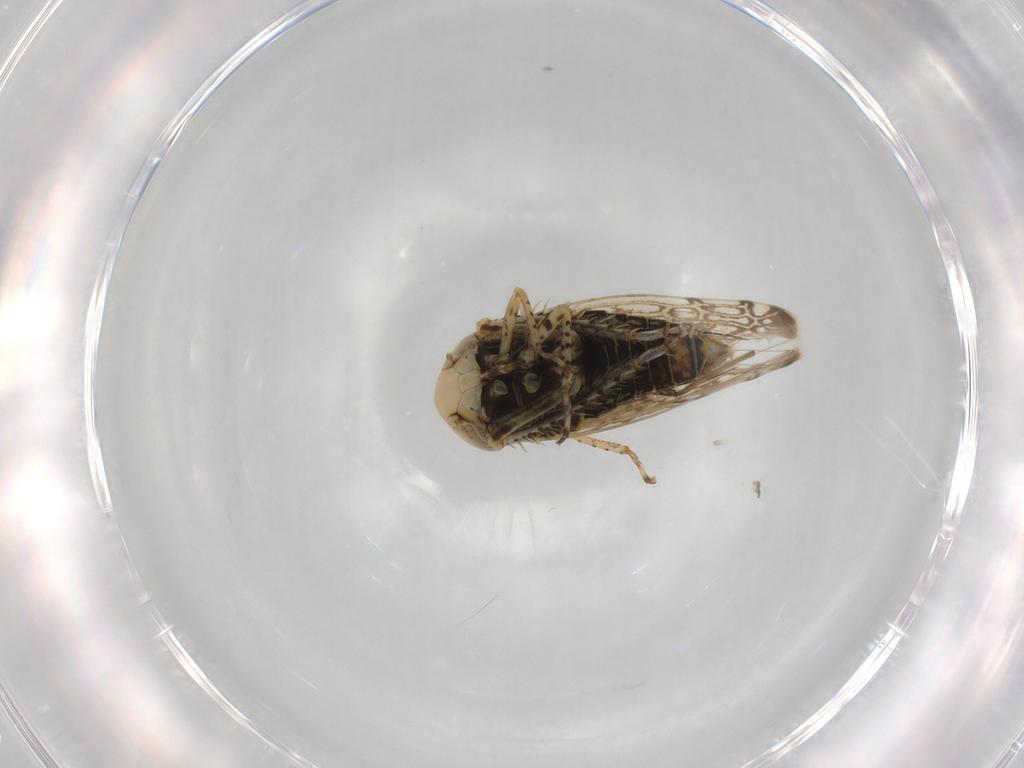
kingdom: Animalia
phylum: Arthropoda
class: Insecta
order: Hemiptera
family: Cicadellidae
